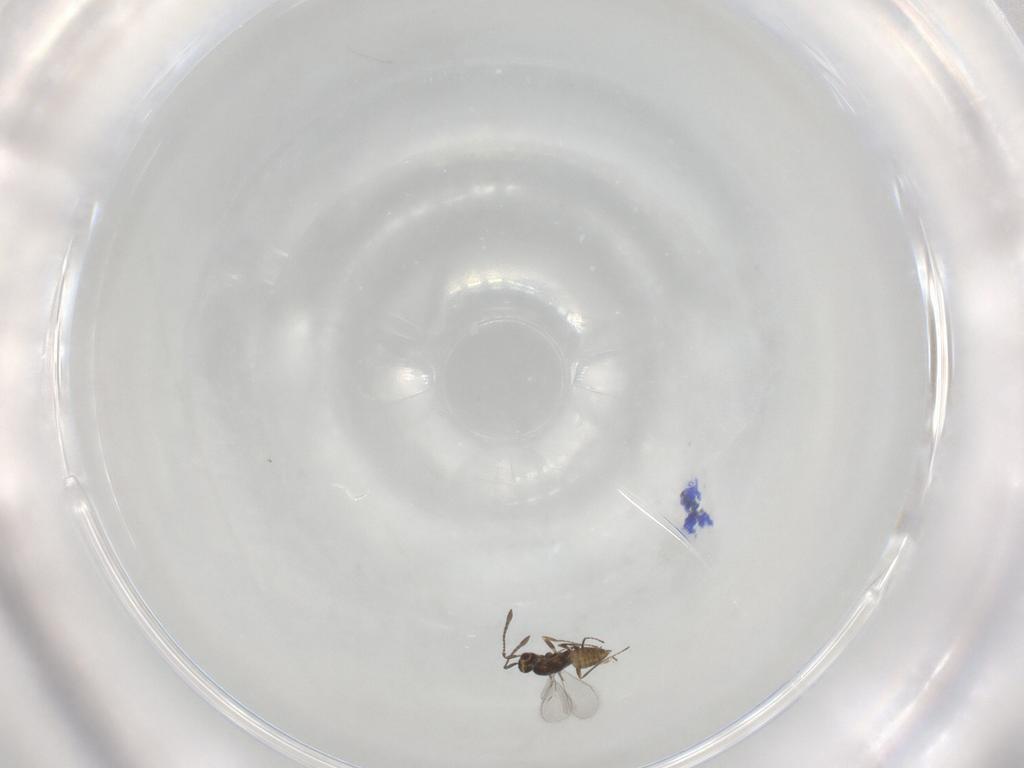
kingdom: Animalia
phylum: Arthropoda
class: Insecta
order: Hymenoptera
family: Mymaridae
